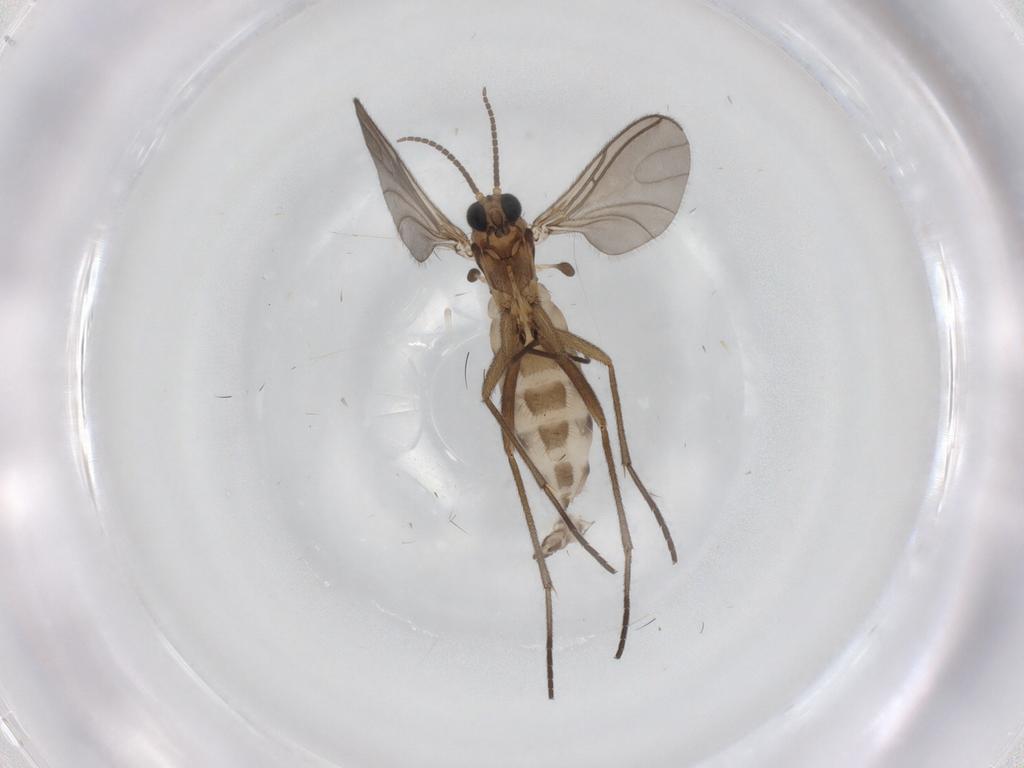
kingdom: Animalia
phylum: Arthropoda
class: Insecta
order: Diptera
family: Sciaridae
